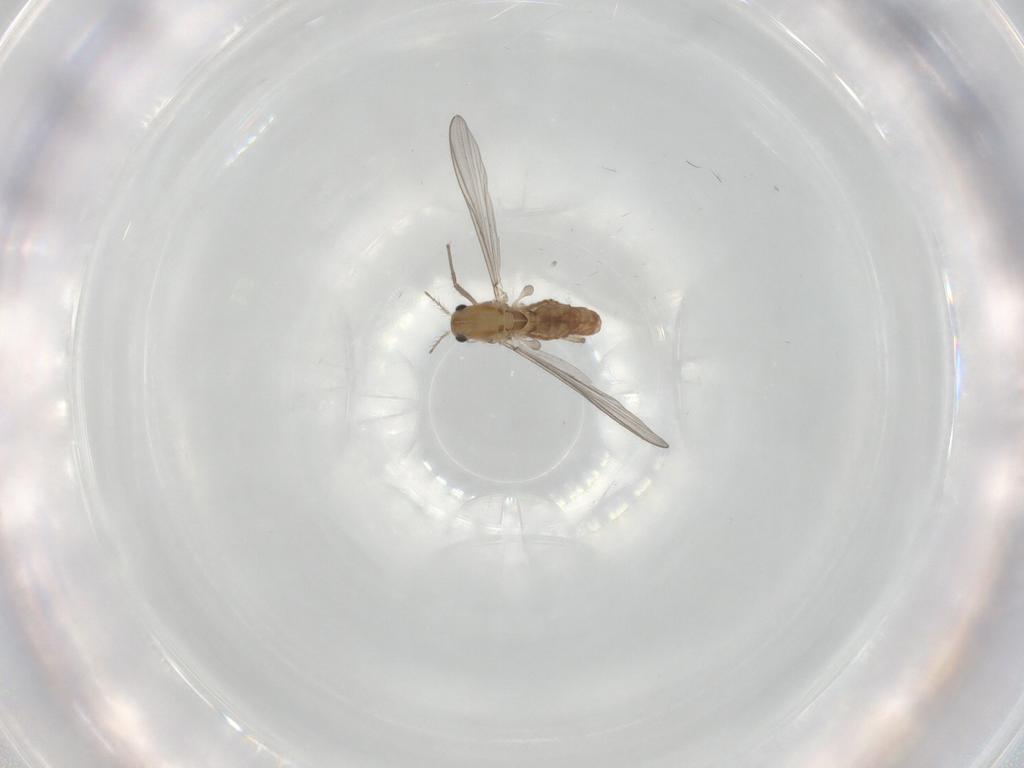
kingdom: Animalia
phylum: Arthropoda
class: Insecta
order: Diptera
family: Chironomidae
